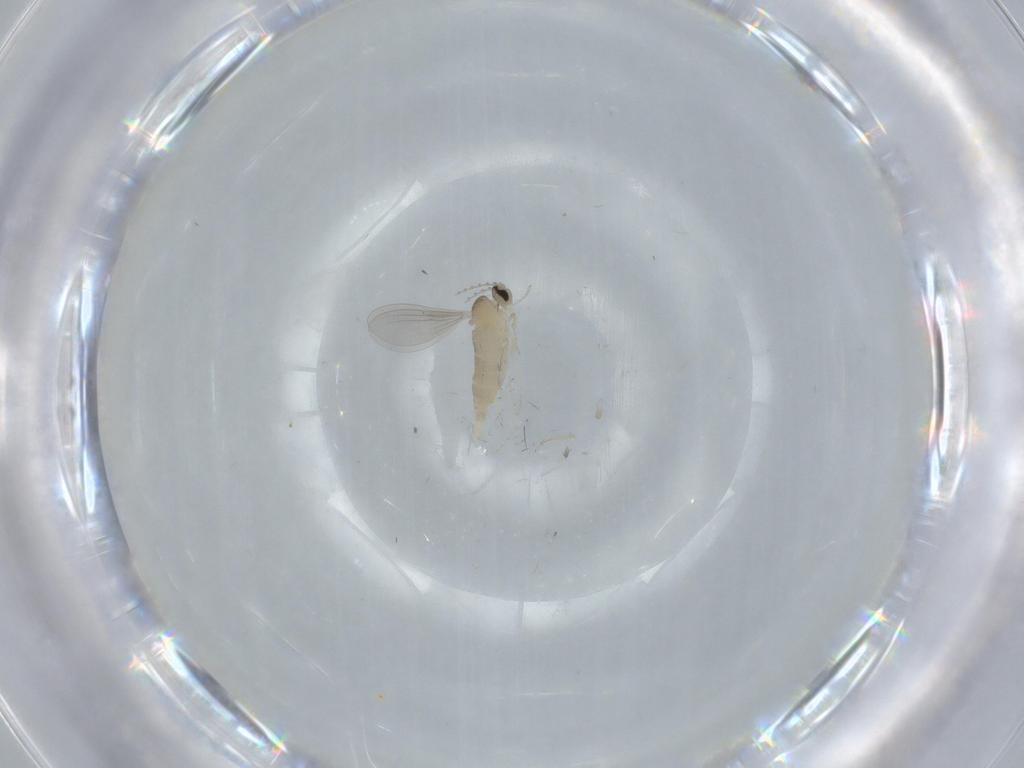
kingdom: Animalia
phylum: Arthropoda
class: Insecta
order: Diptera
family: Cecidomyiidae
